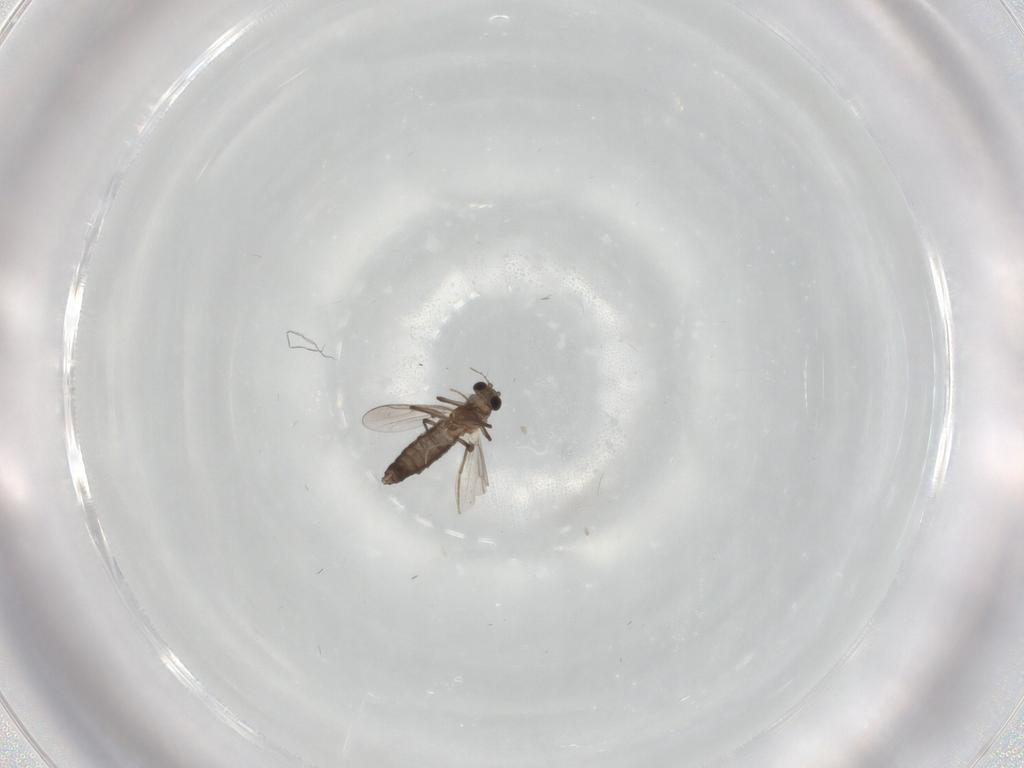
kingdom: Animalia
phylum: Arthropoda
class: Insecta
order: Diptera
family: Chironomidae
